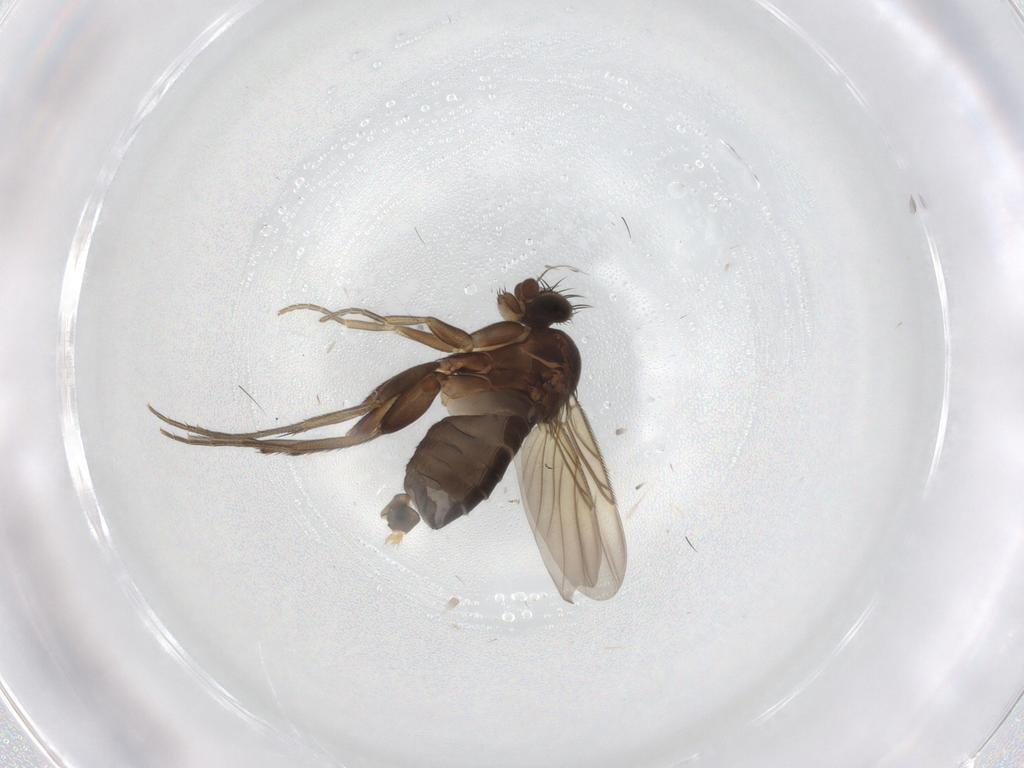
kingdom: Animalia
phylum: Arthropoda
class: Insecta
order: Diptera
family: Phoridae
